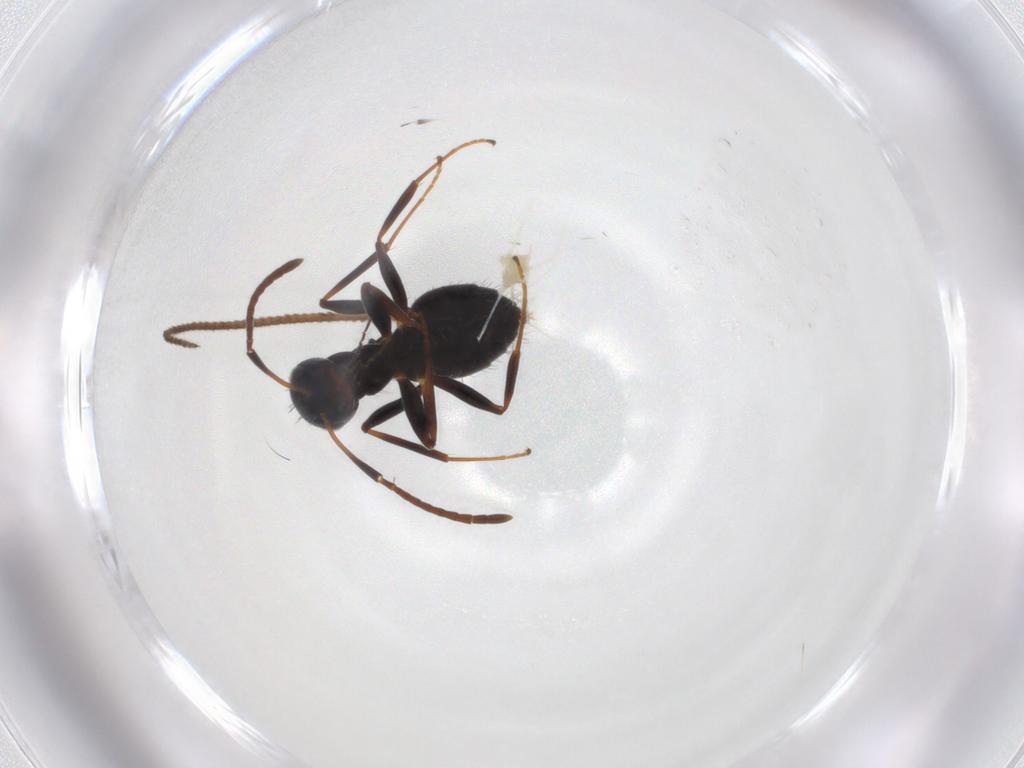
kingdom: Animalia
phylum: Arthropoda
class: Insecta
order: Hymenoptera
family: Formicidae
